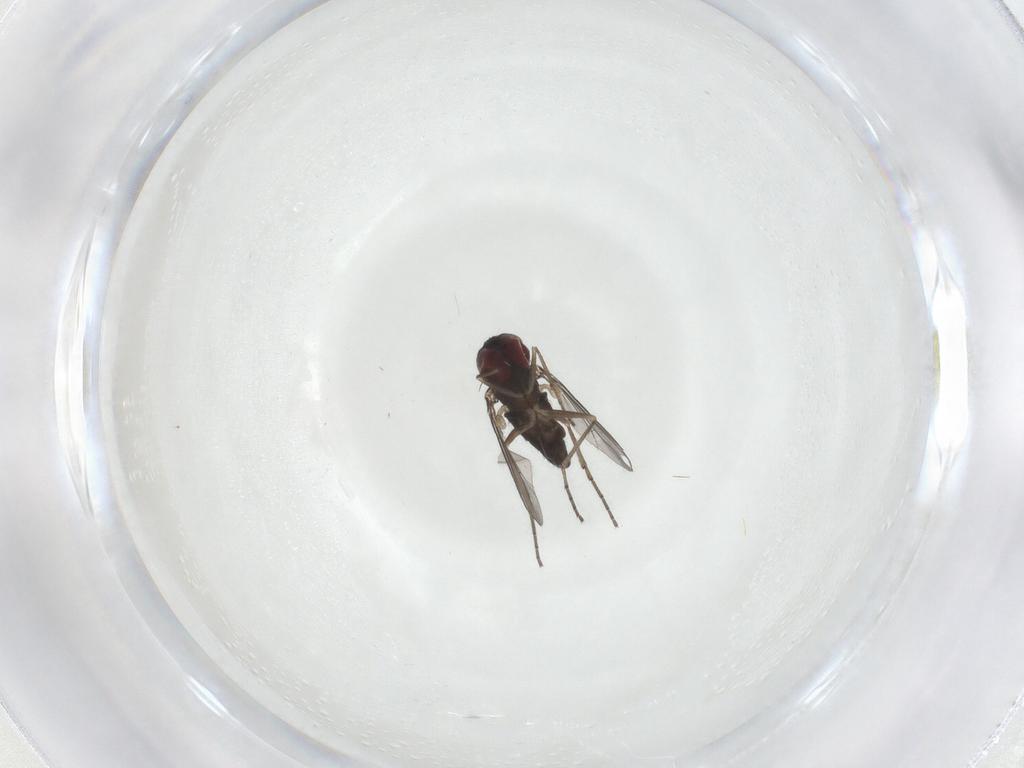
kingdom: Animalia
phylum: Arthropoda
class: Insecta
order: Diptera
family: Dolichopodidae
